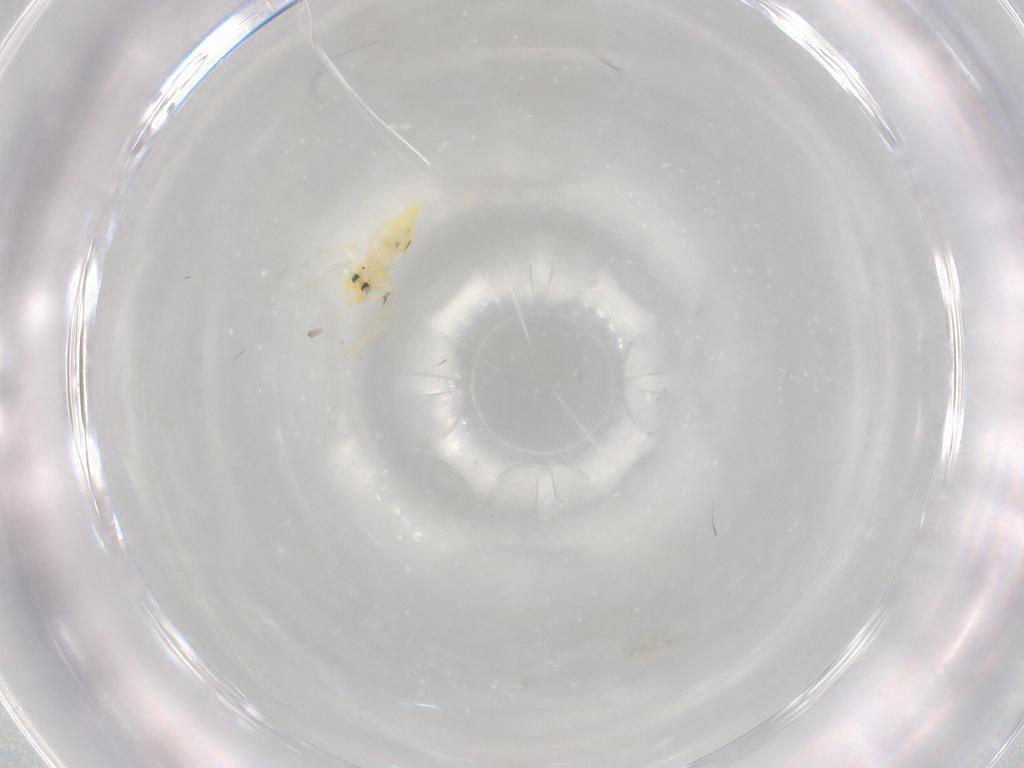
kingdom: Animalia
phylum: Arthropoda
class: Insecta
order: Hemiptera
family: Aleyrodidae
